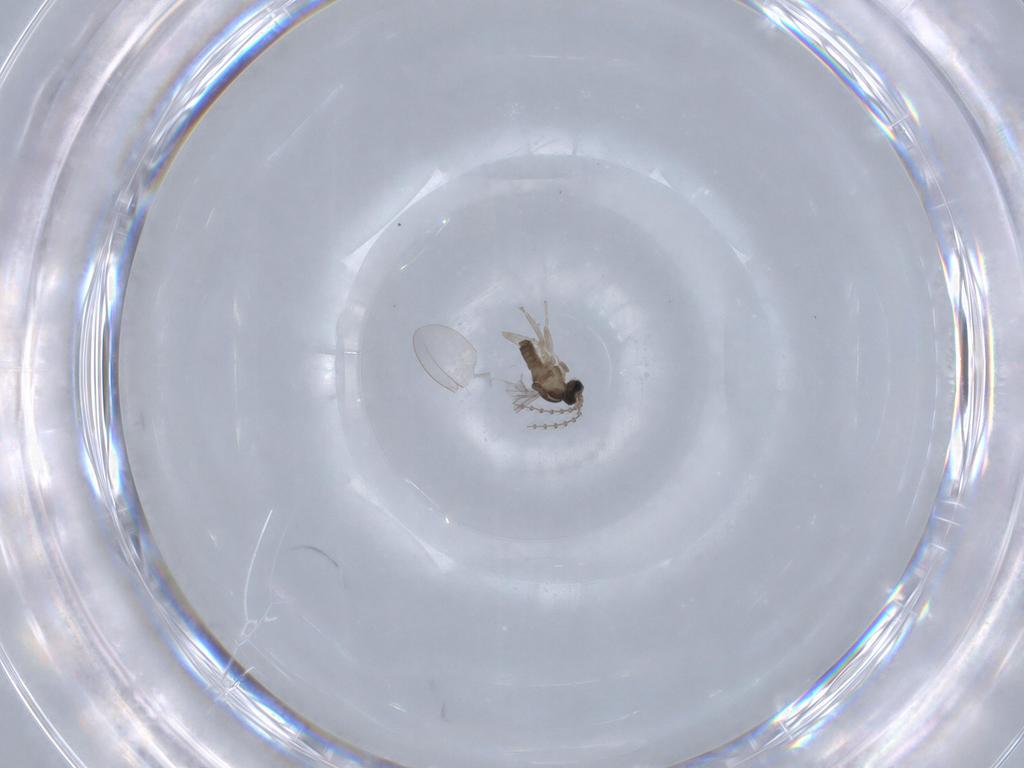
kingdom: Animalia
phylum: Arthropoda
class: Insecta
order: Diptera
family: Cecidomyiidae
